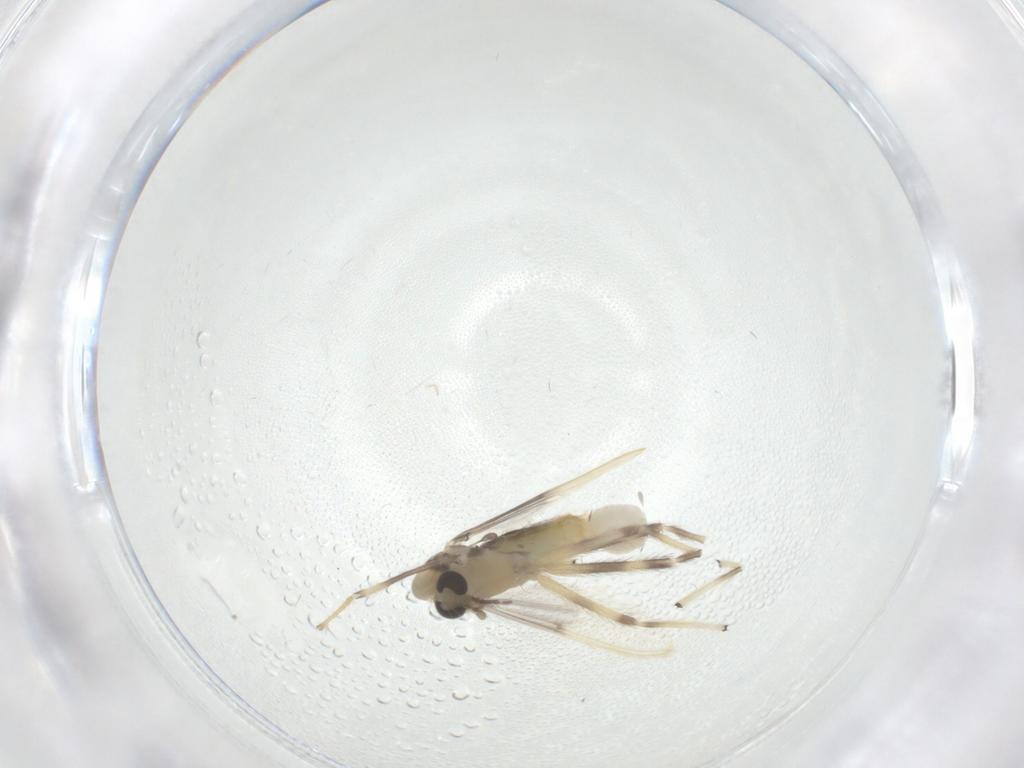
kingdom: Animalia
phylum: Arthropoda
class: Insecta
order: Diptera
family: Chironomidae
